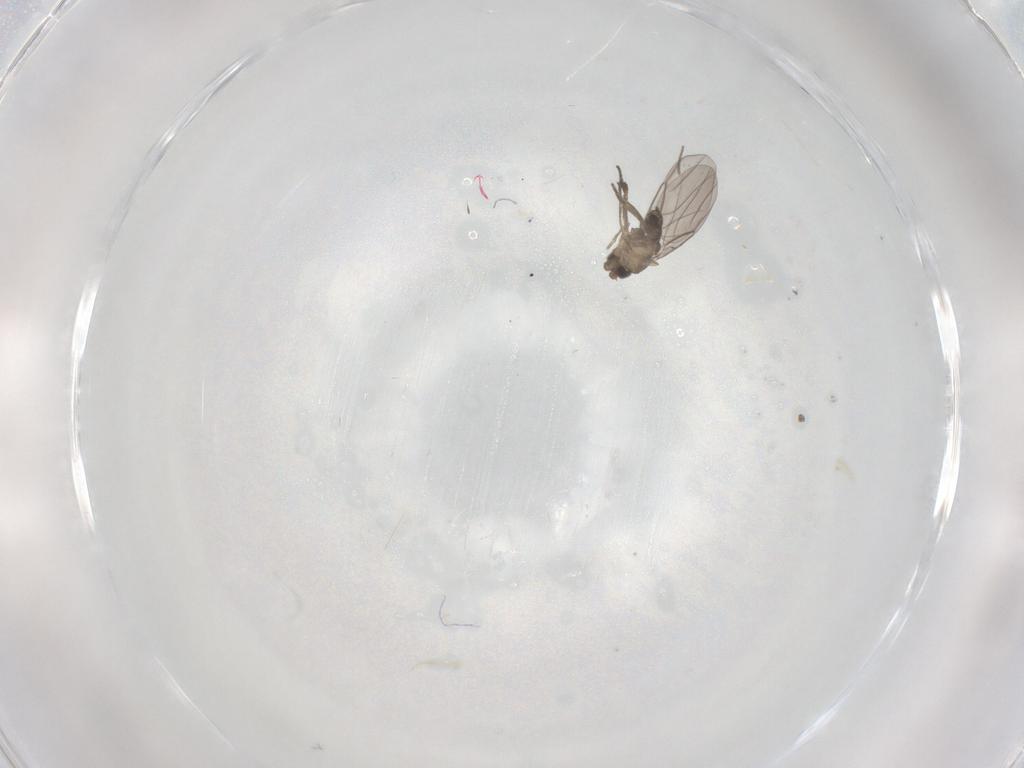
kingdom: Animalia
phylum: Arthropoda
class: Insecta
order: Diptera
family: Phoridae
